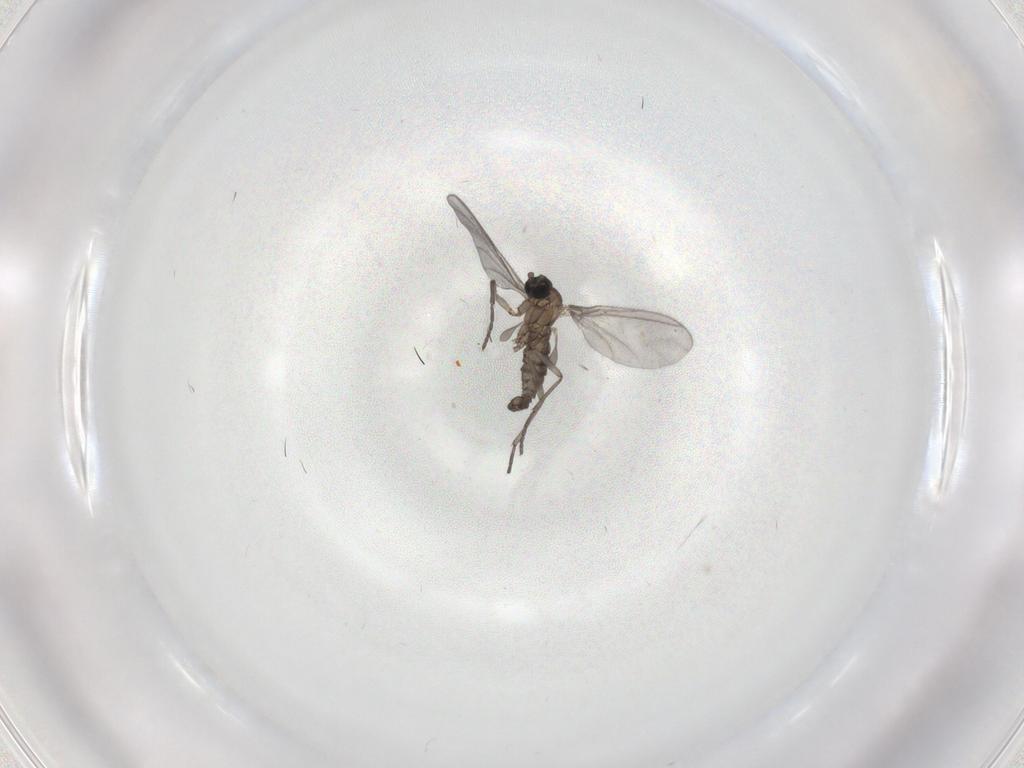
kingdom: Animalia
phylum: Arthropoda
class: Insecta
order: Diptera
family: Sciaridae
